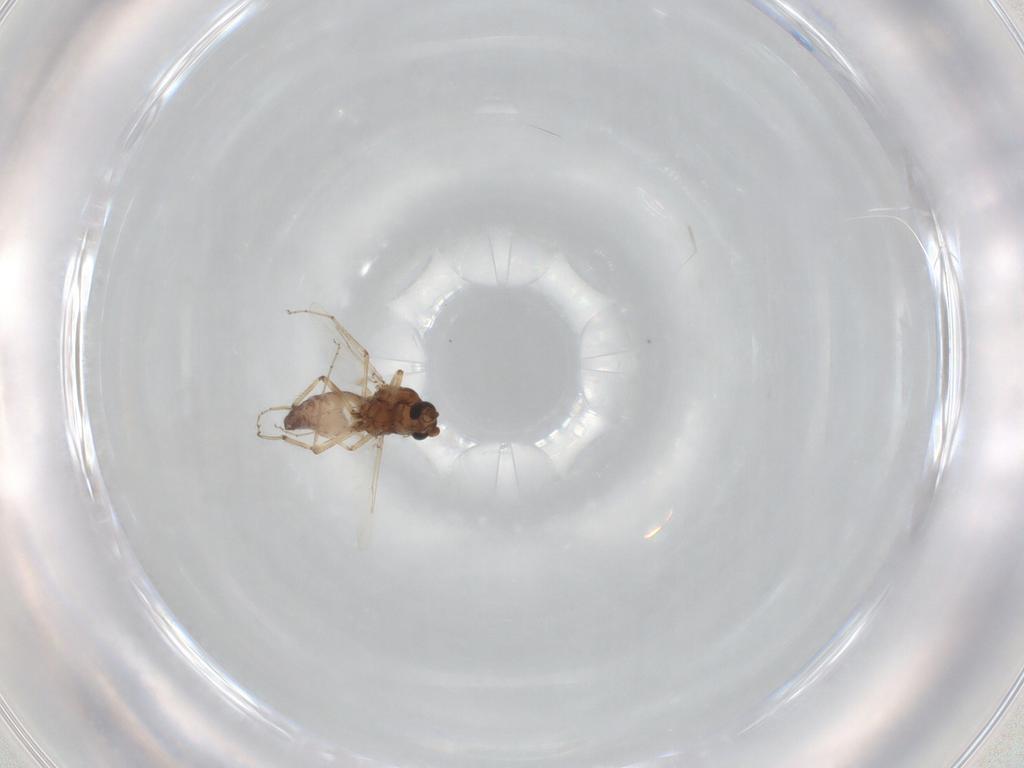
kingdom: Animalia
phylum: Arthropoda
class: Insecta
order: Diptera
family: Ceratopogonidae
